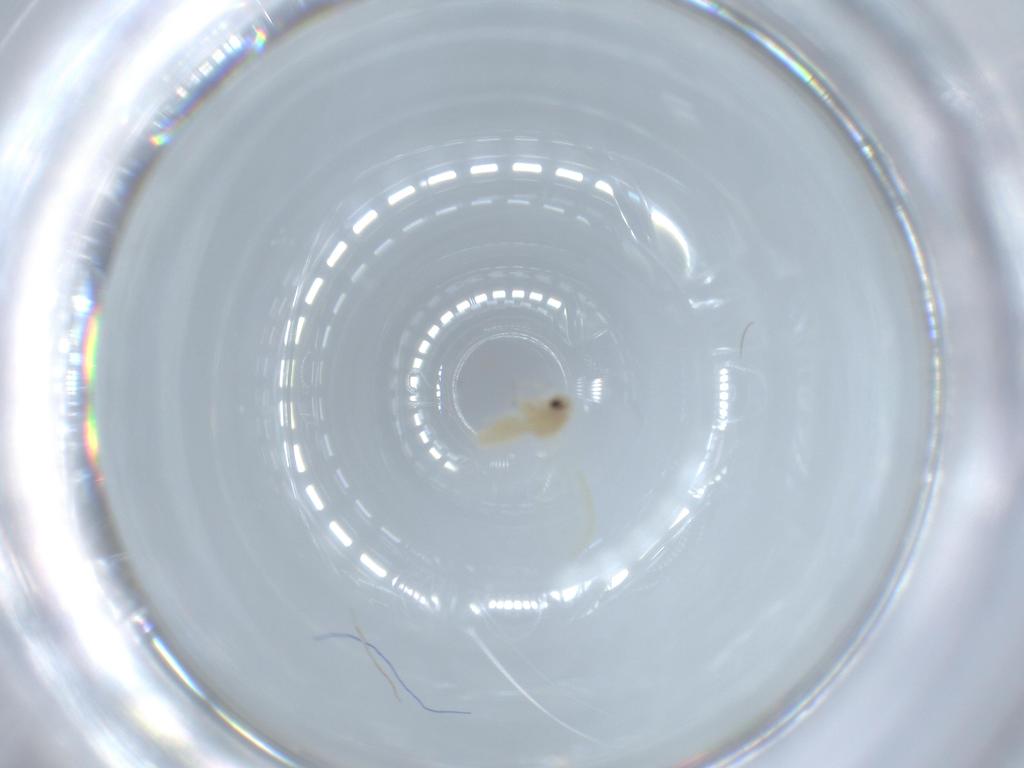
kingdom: Animalia
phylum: Arthropoda
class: Insecta
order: Hemiptera
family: Aleyrodidae
